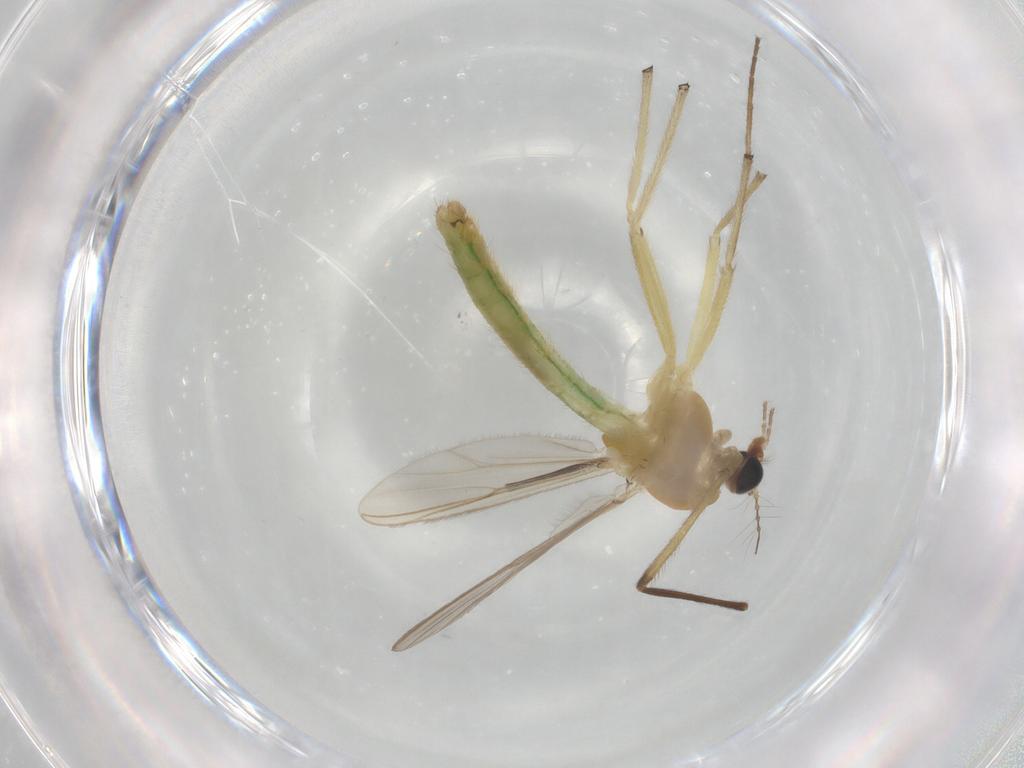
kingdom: Animalia
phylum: Arthropoda
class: Insecta
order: Diptera
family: Chironomidae
